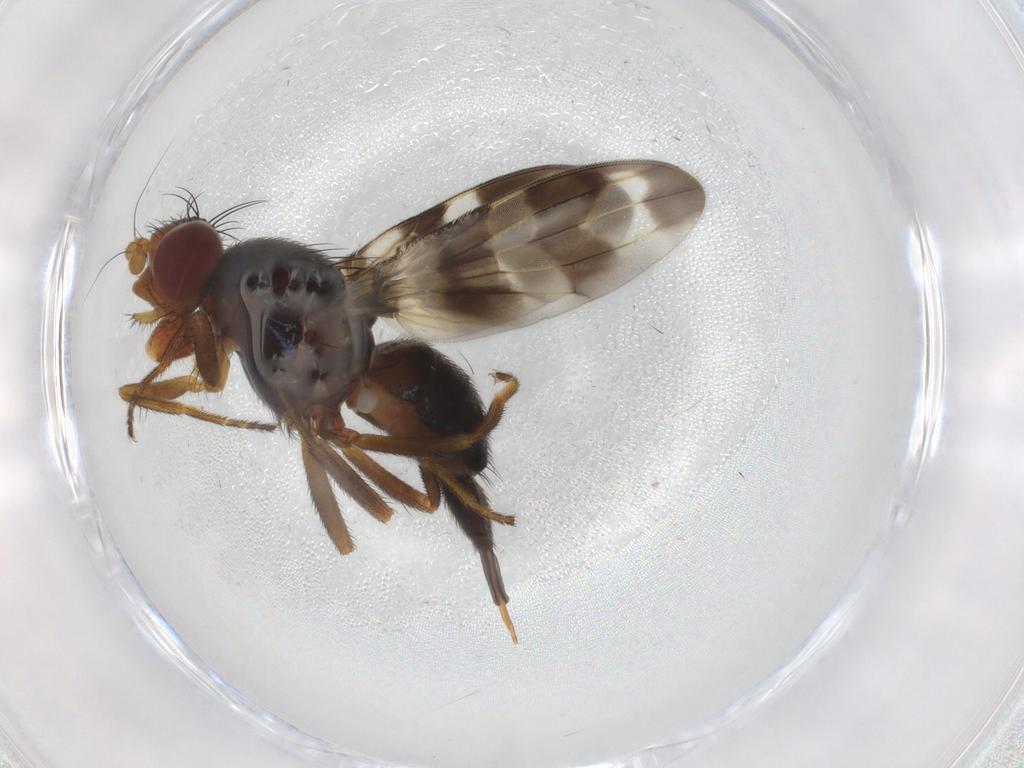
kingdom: Animalia
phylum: Arthropoda
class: Insecta
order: Diptera
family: Ulidiidae
